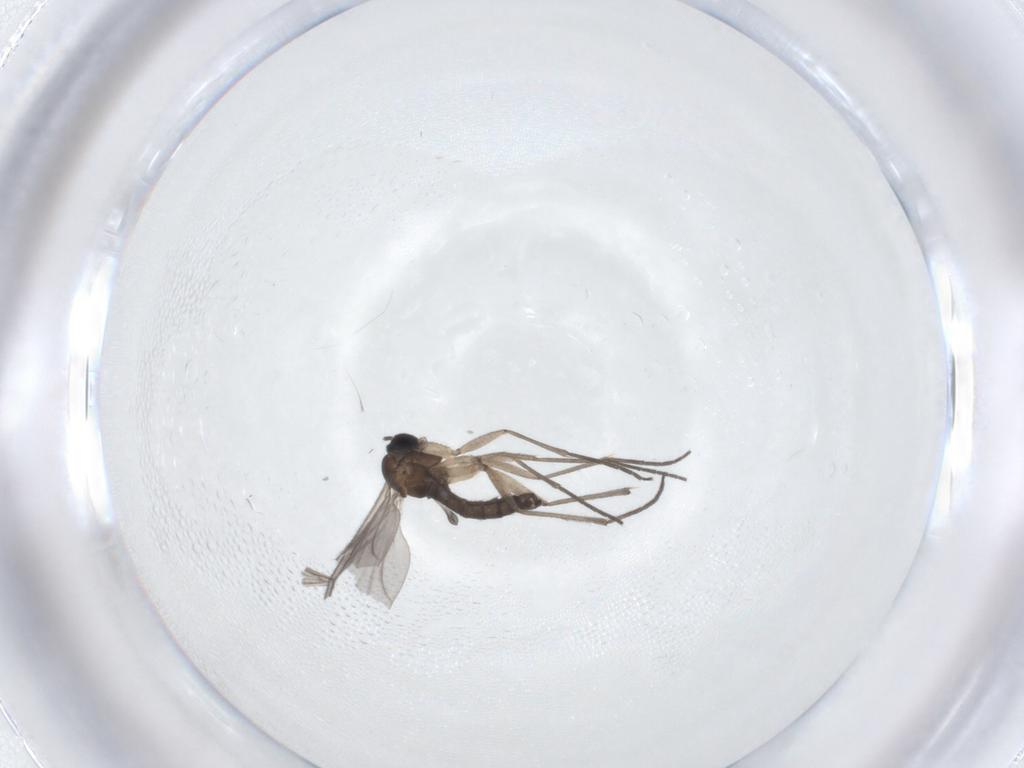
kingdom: Animalia
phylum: Arthropoda
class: Insecta
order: Diptera
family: Sciaridae
